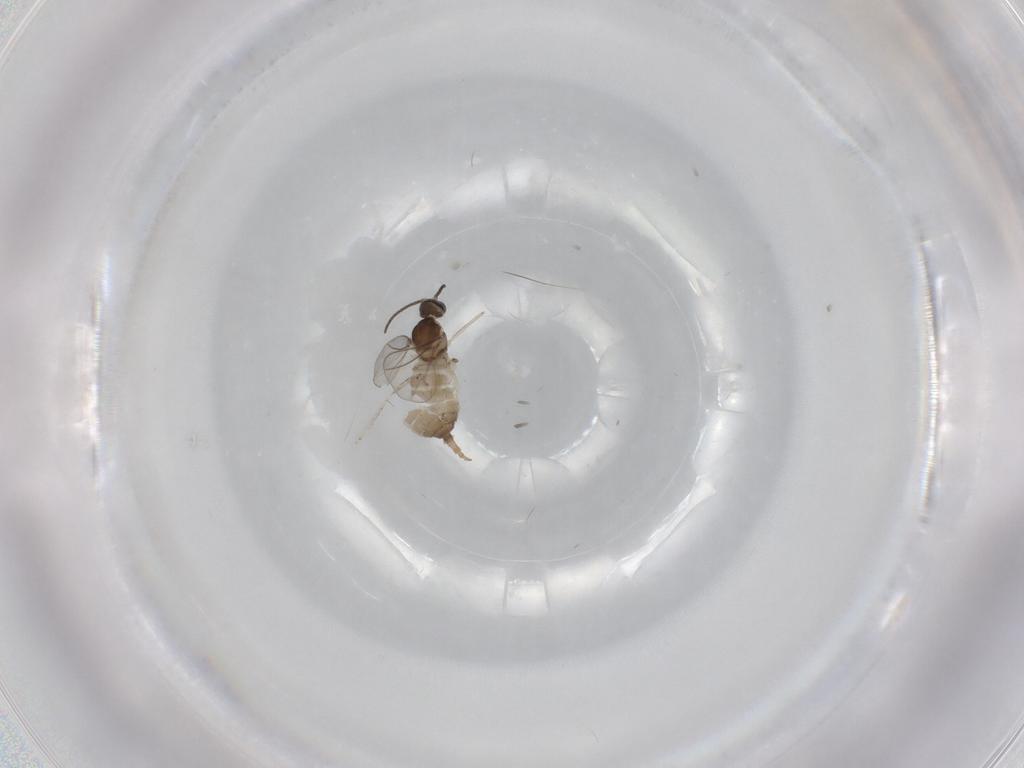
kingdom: Animalia
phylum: Arthropoda
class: Insecta
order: Diptera
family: Cecidomyiidae
